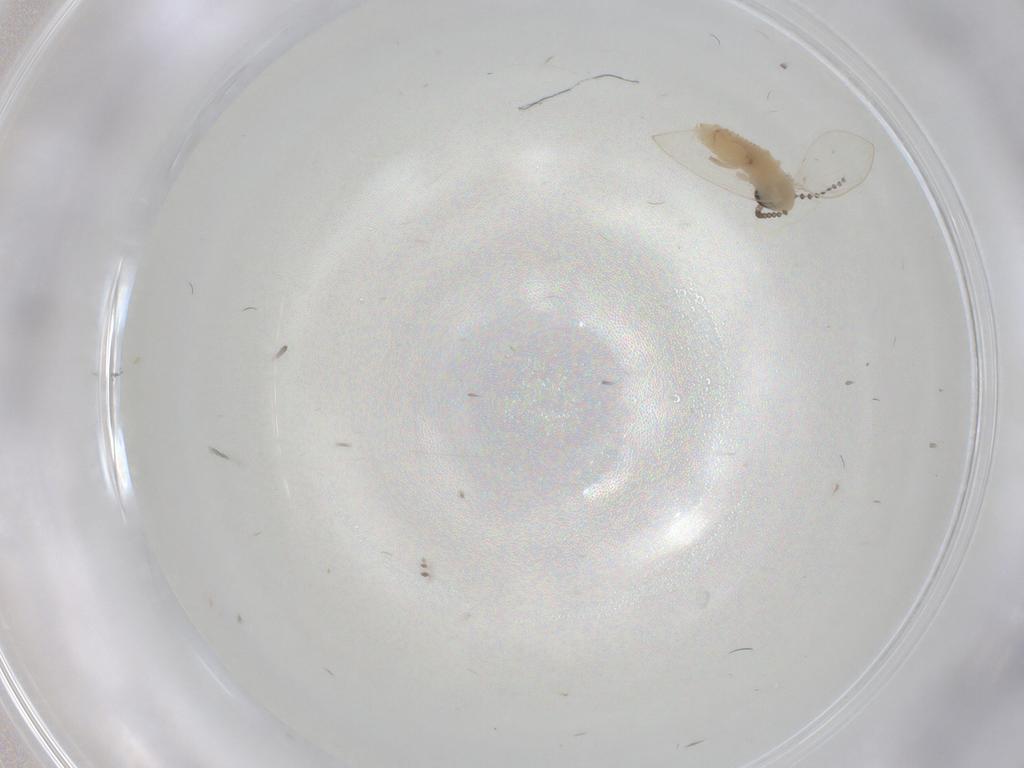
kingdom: Animalia
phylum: Arthropoda
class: Insecta
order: Diptera
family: Psychodidae
